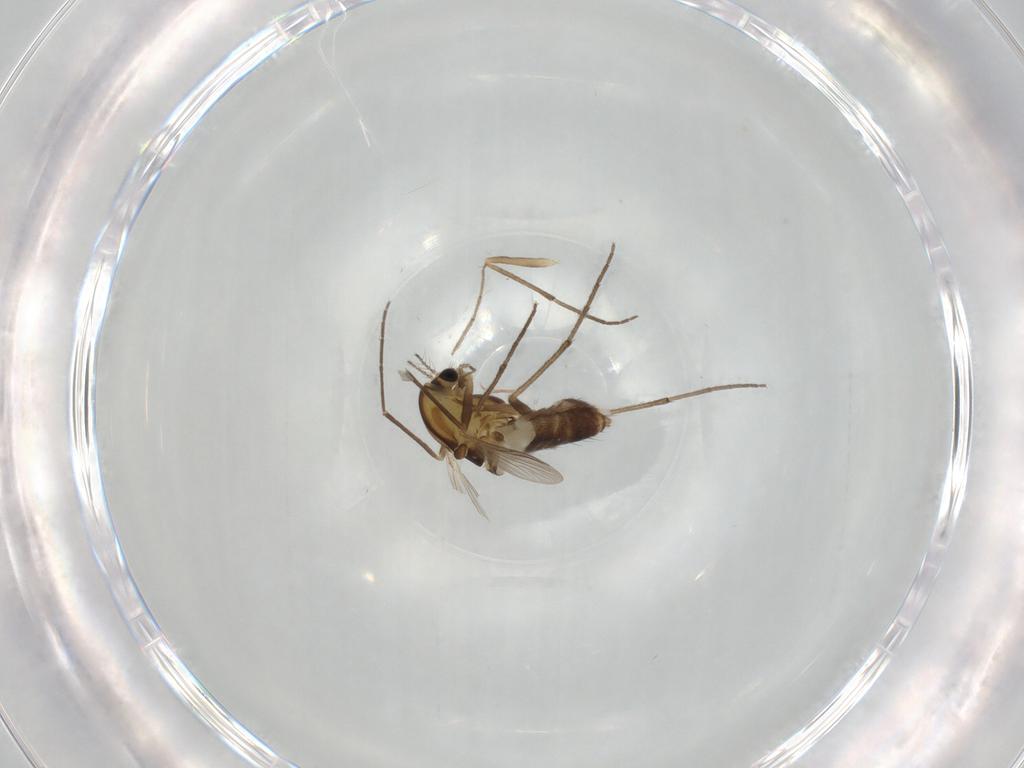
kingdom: Animalia
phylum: Arthropoda
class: Insecta
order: Diptera
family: Chironomidae
